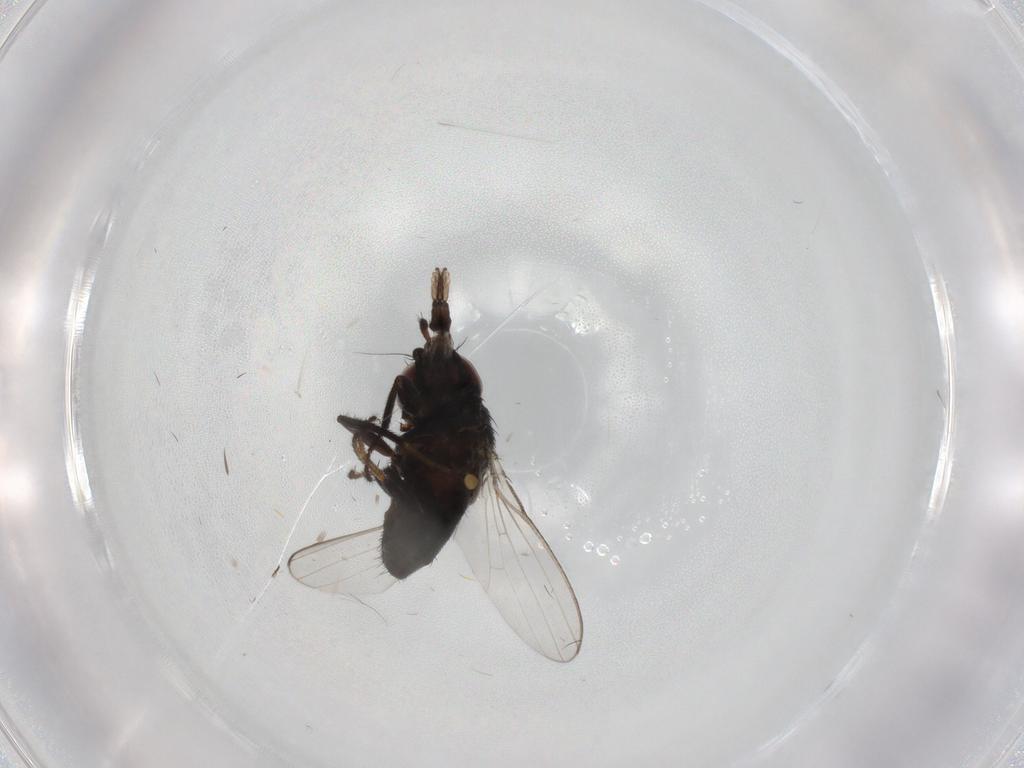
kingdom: Animalia
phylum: Arthropoda
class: Insecta
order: Diptera
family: Milichiidae
